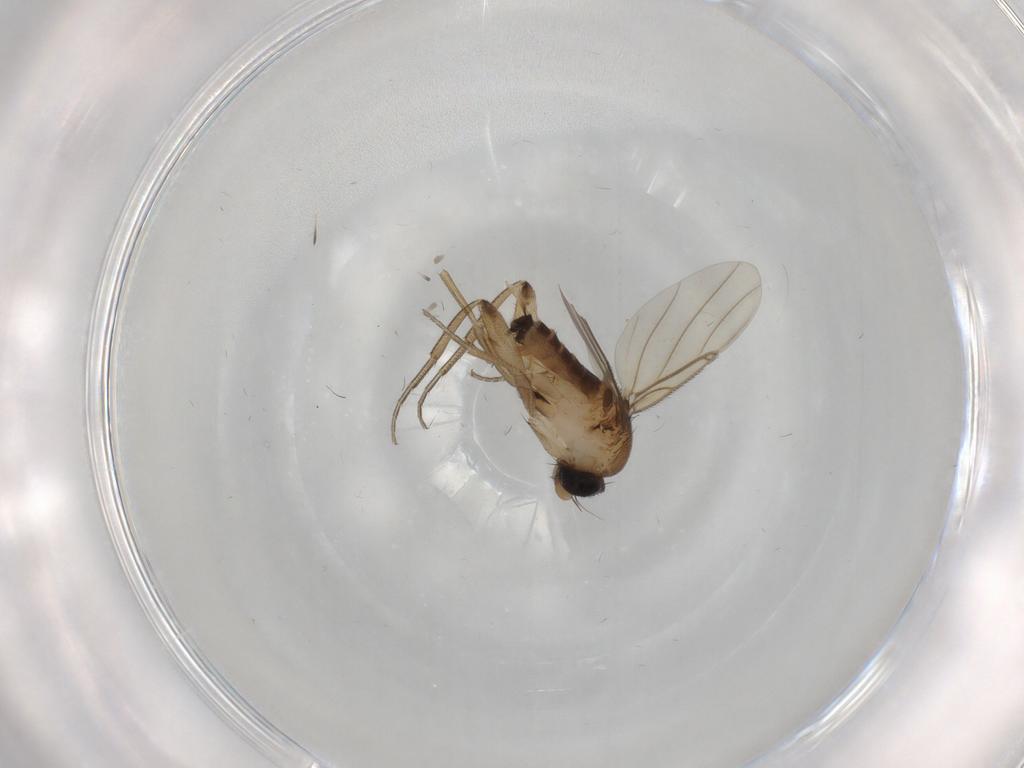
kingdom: Animalia
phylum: Arthropoda
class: Insecta
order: Diptera
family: Phoridae
